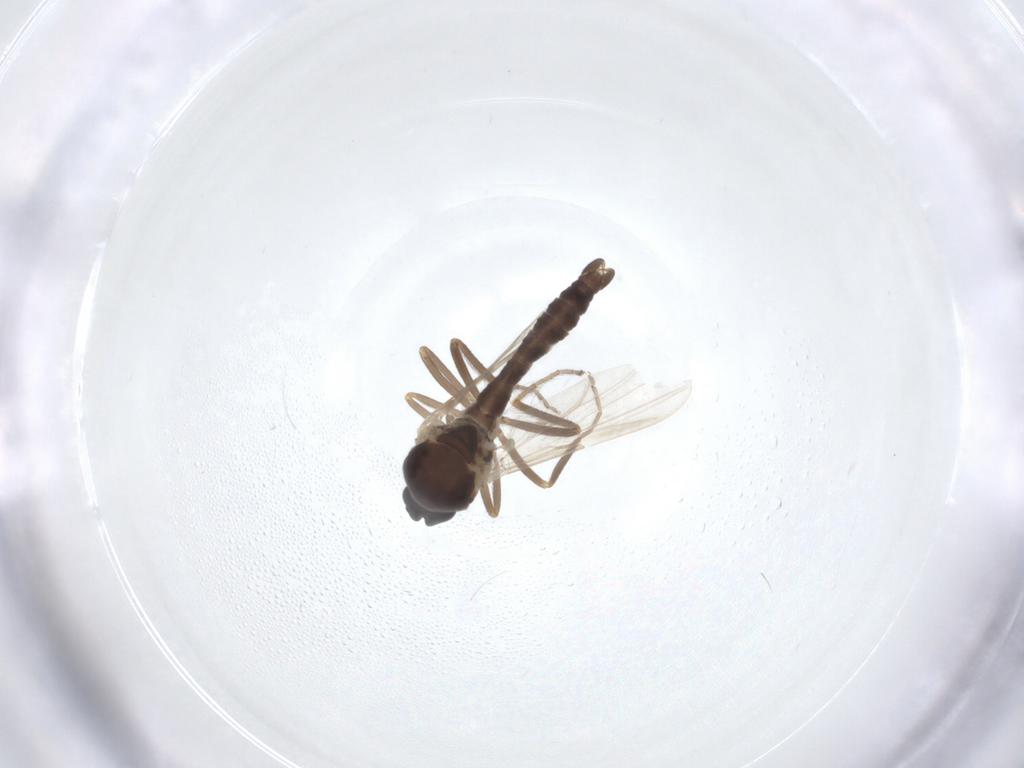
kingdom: Animalia
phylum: Arthropoda
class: Insecta
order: Diptera
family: Ceratopogonidae
